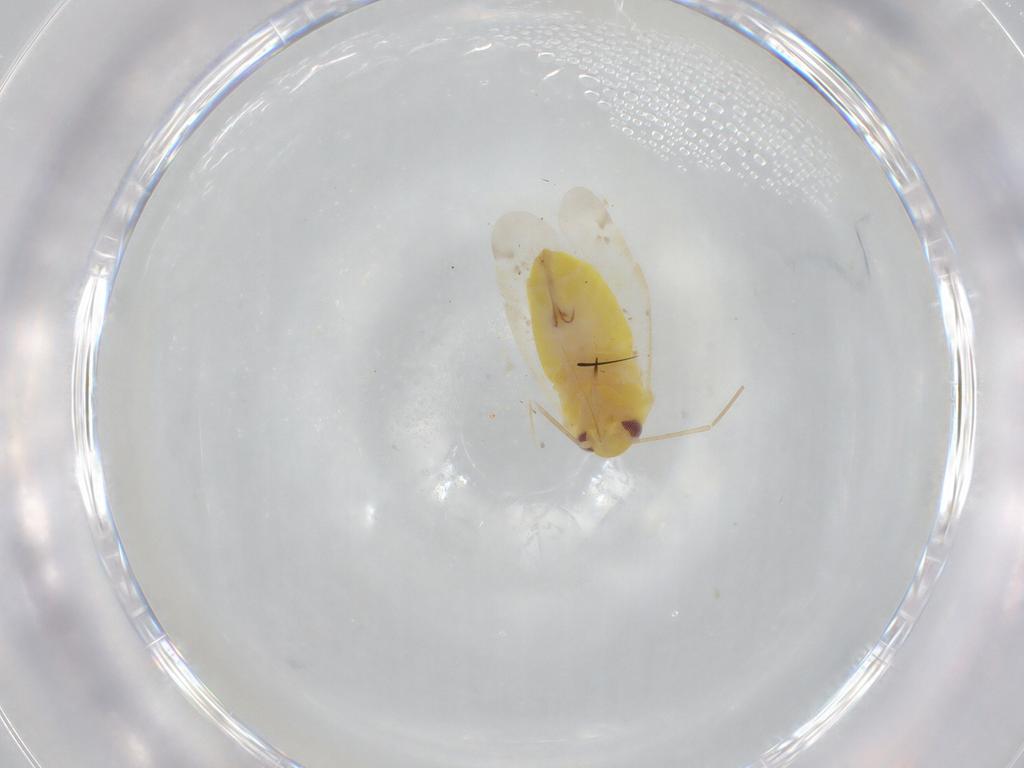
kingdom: Animalia
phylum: Arthropoda
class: Insecta
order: Hemiptera
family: Miridae
